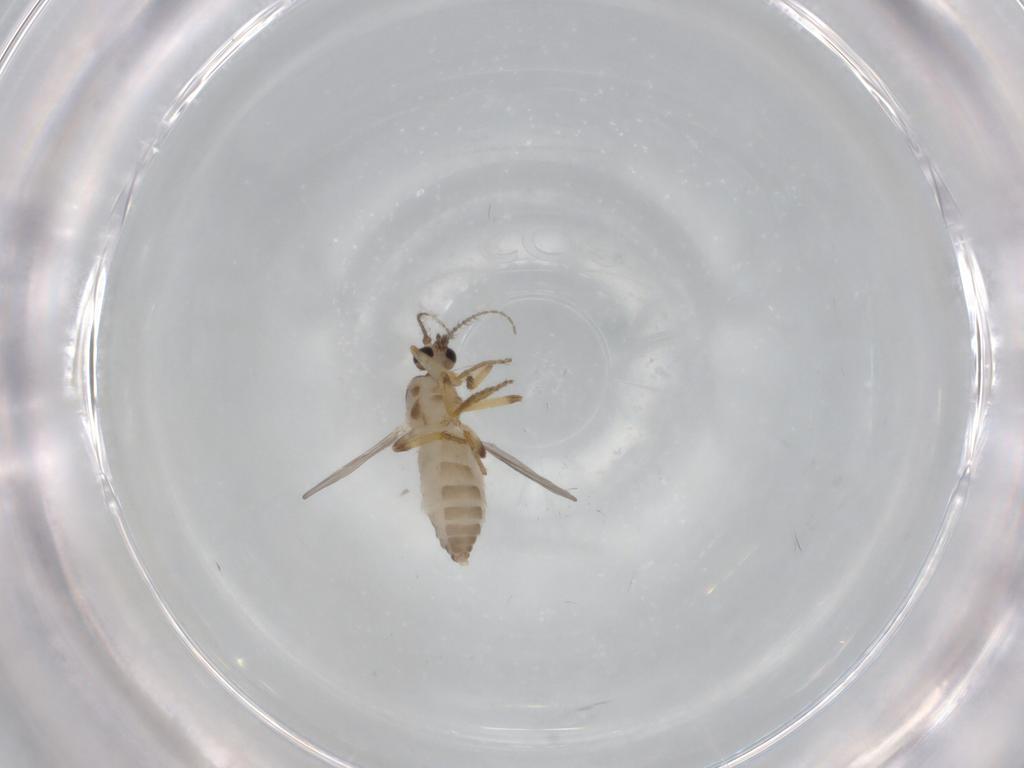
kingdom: Animalia
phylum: Arthropoda
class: Insecta
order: Diptera
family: Ceratopogonidae
